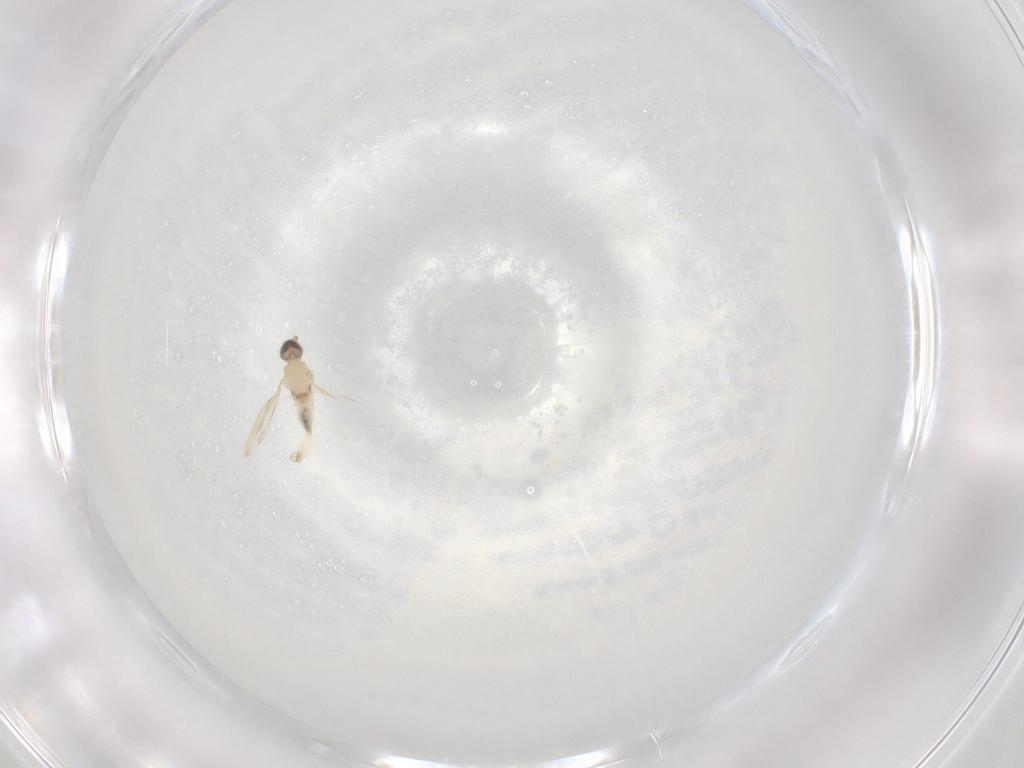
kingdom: Animalia
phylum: Arthropoda
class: Insecta
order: Diptera
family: Cecidomyiidae
